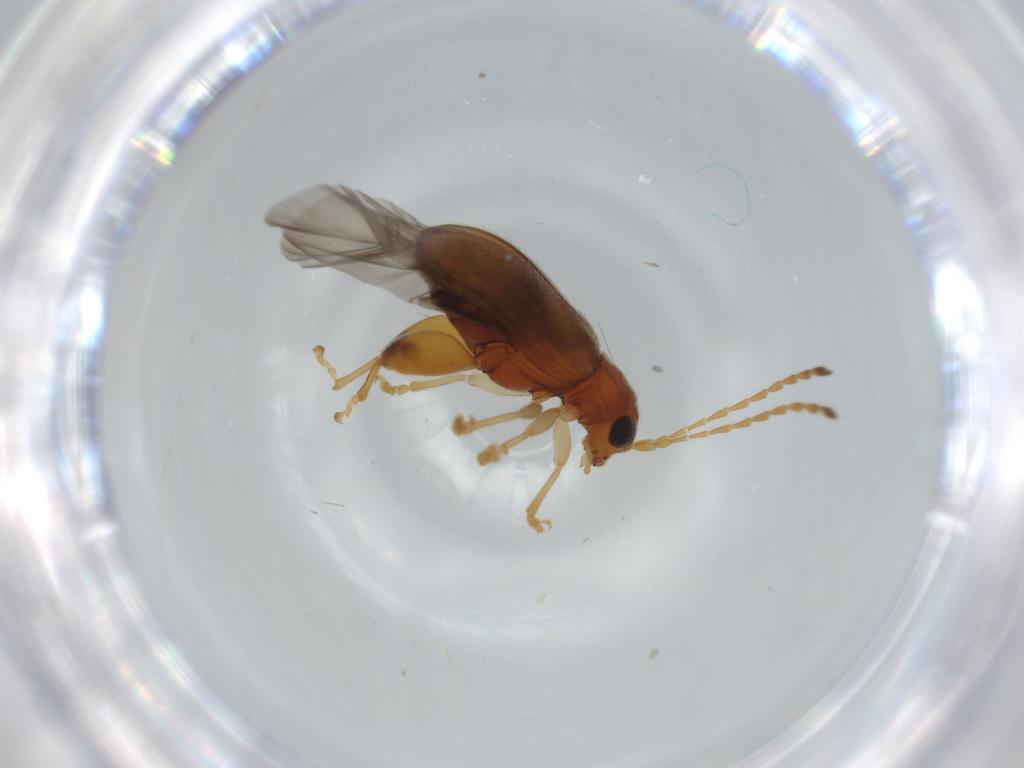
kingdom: Animalia
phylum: Arthropoda
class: Insecta
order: Coleoptera
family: Chrysomelidae
